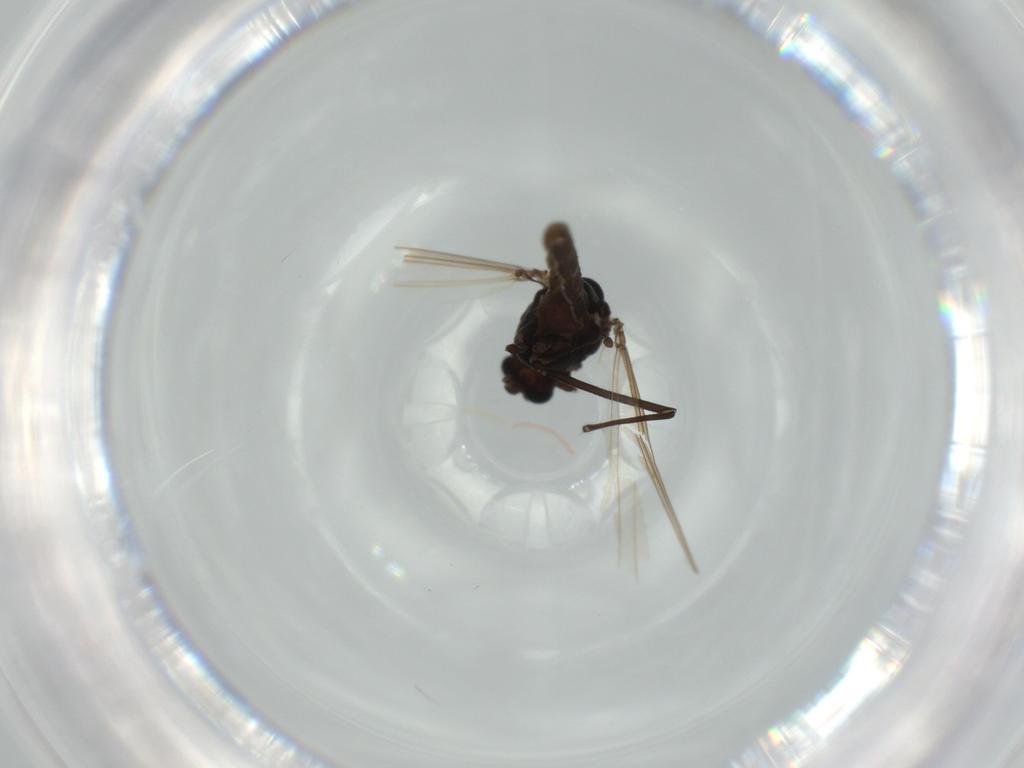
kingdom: Animalia
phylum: Arthropoda
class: Insecta
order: Diptera
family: Chironomidae
